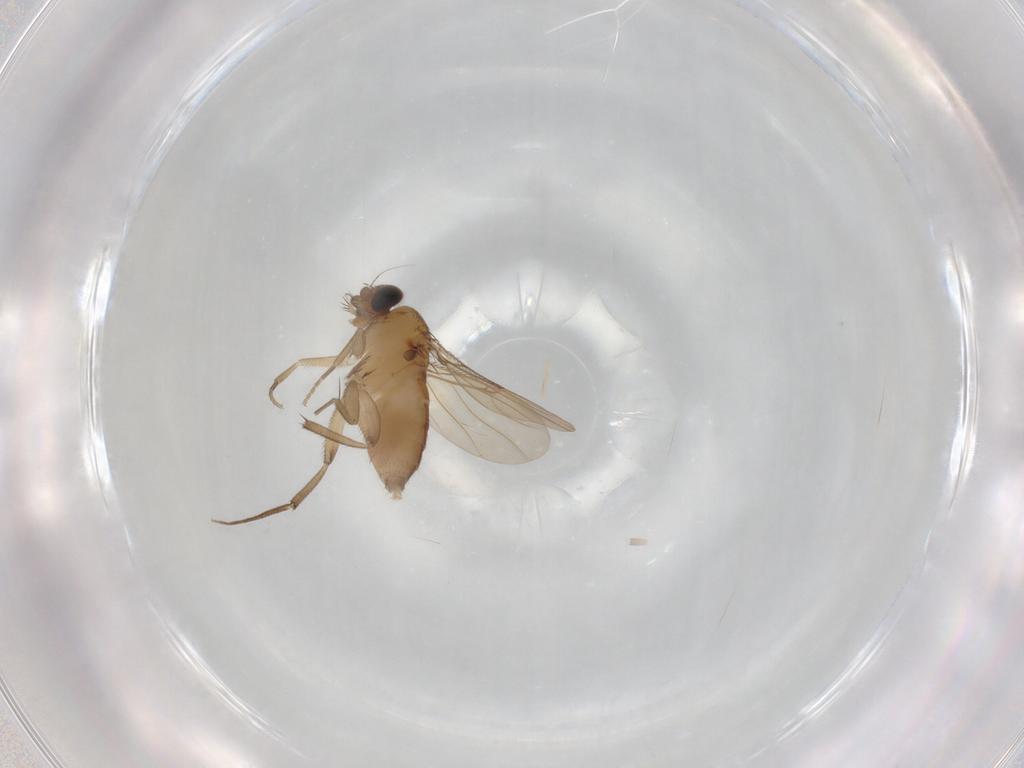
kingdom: Animalia
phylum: Arthropoda
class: Insecta
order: Diptera
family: Phoridae
